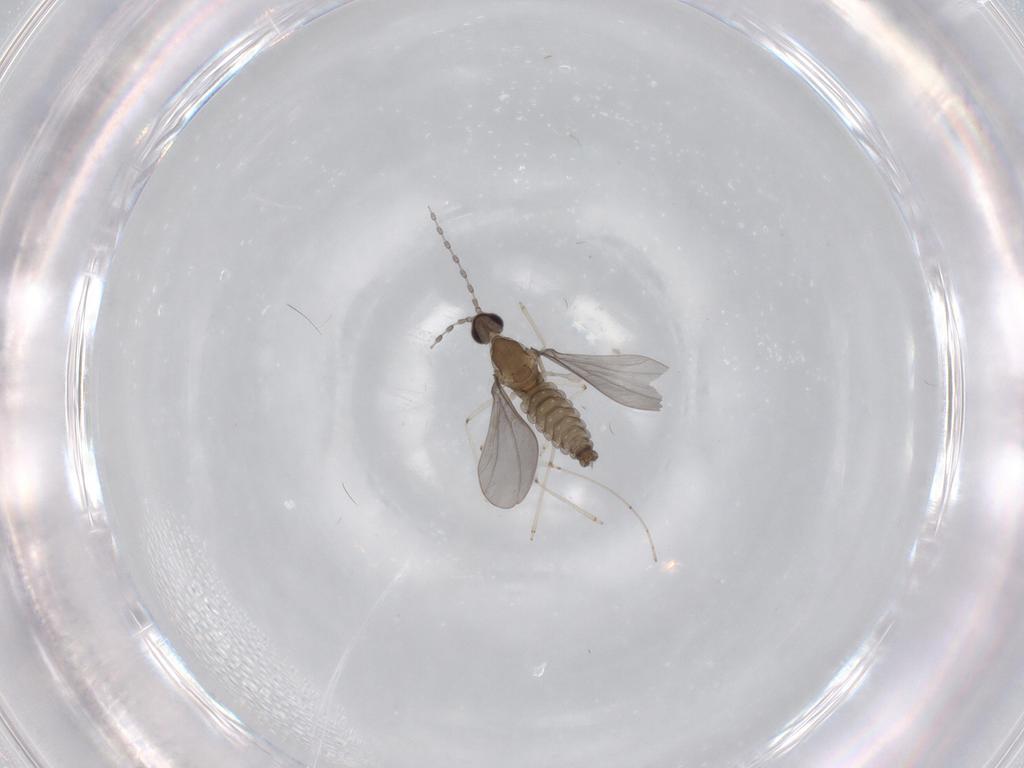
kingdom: Animalia
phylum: Arthropoda
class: Insecta
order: Diptera
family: Cecidomyiidae
